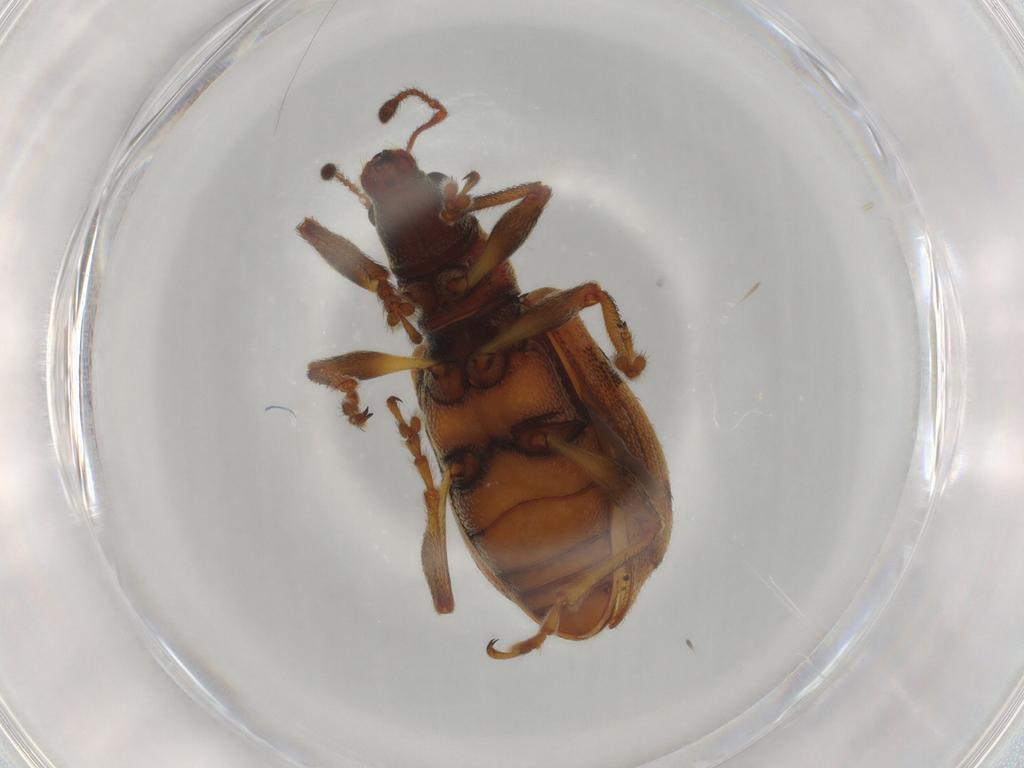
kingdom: Animalia
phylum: Arthropoda
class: Insecta
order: Coleoptera
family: Curculionidae
